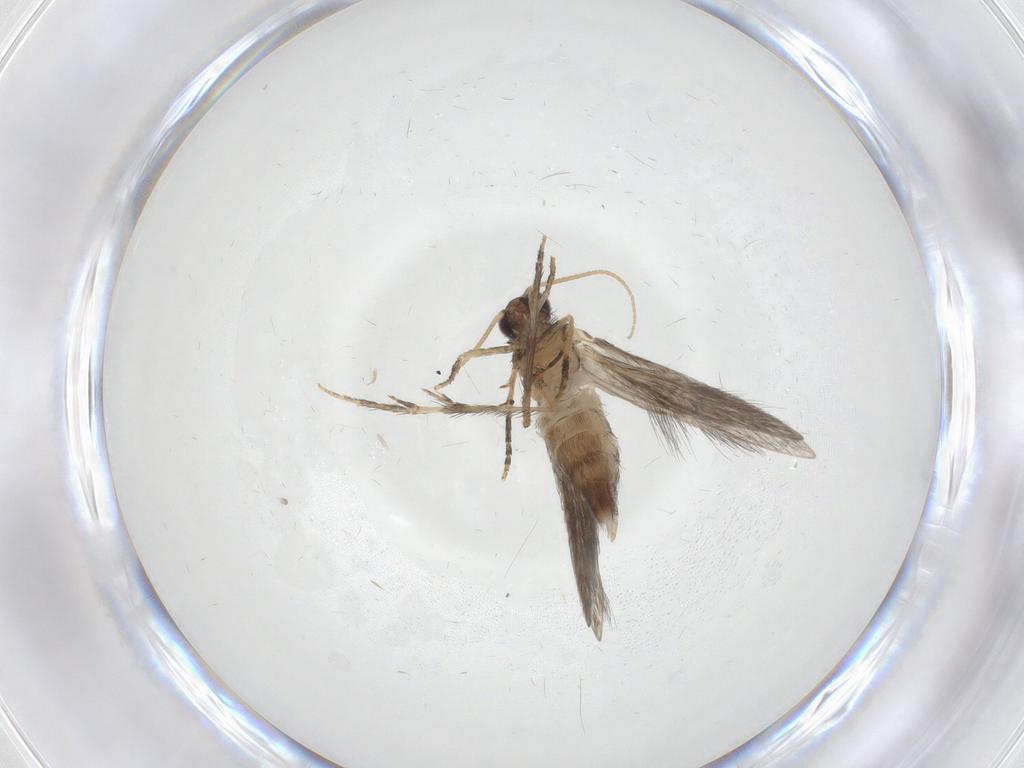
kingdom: Animalia
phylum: Arthropoda
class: Insecta
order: Trichoptera
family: Hydroptilidae
